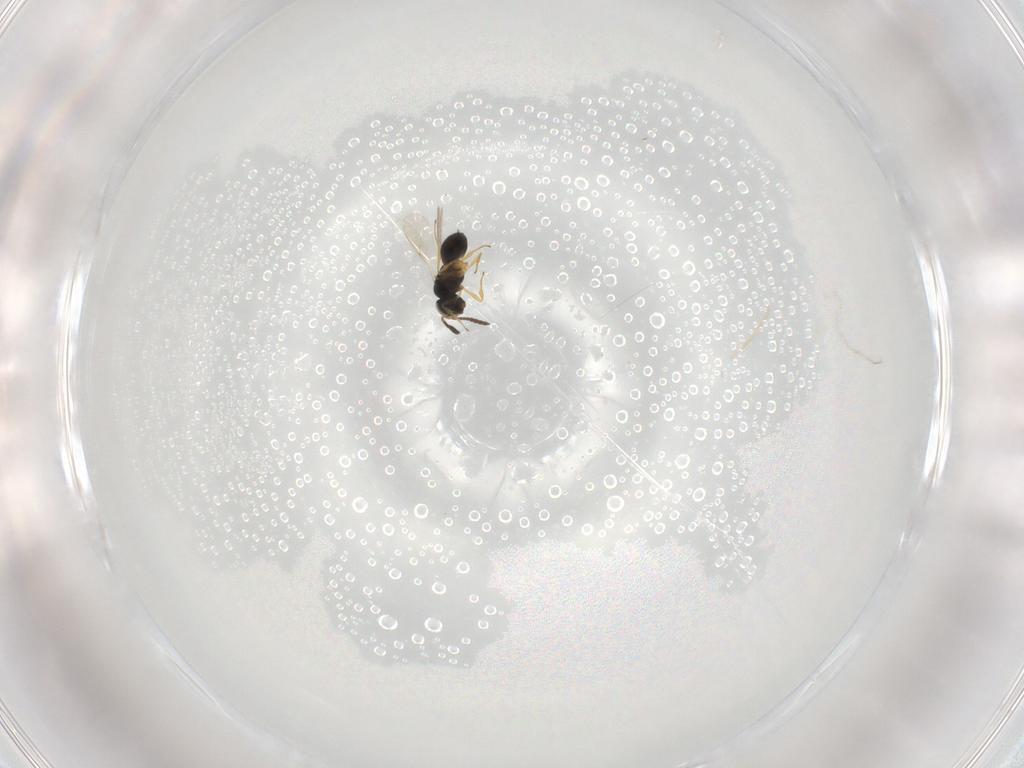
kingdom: Animalia
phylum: Arthropoda
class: Insecta
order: Hymenoptera
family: Scelionidae
